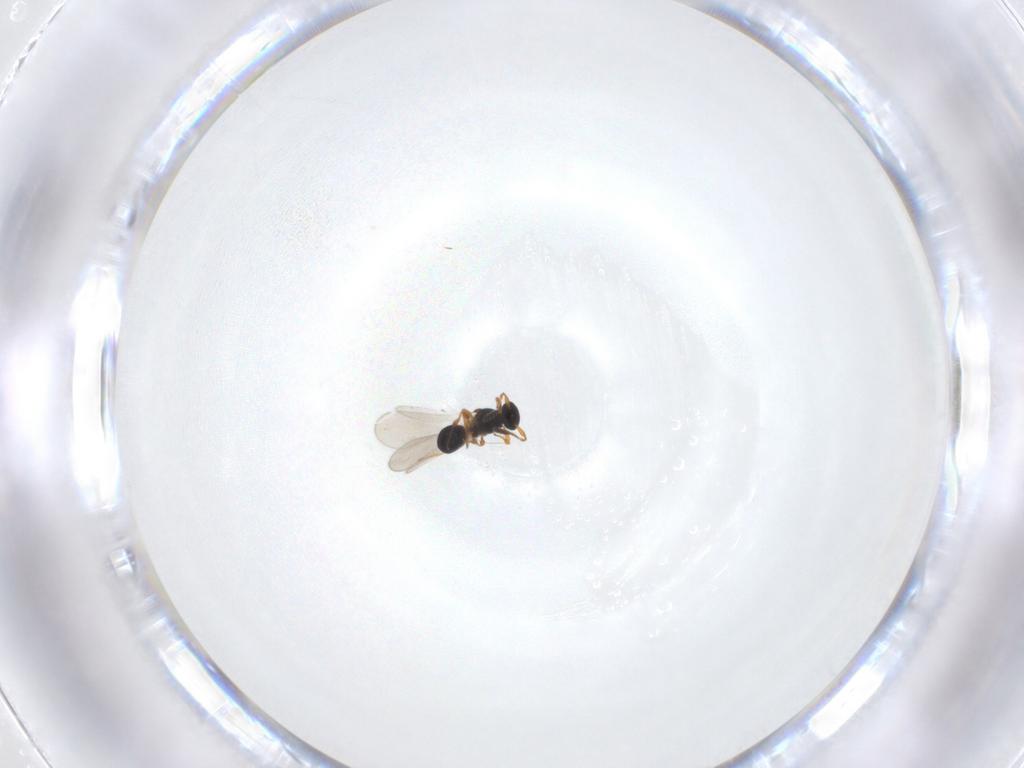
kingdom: Animalia
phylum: Arthropoda
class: Insecta
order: Hymenoptera
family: Platygastridae
